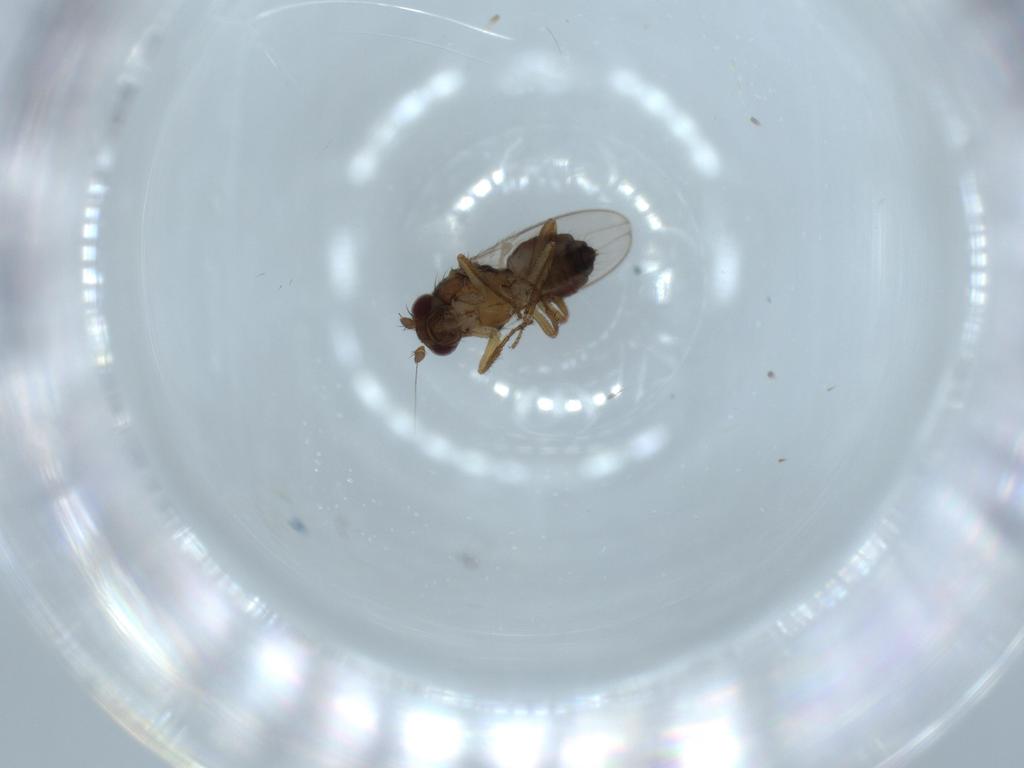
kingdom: Animalia
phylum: Arthropoda
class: Insecta
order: Diptera
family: Sphaeroceridae
